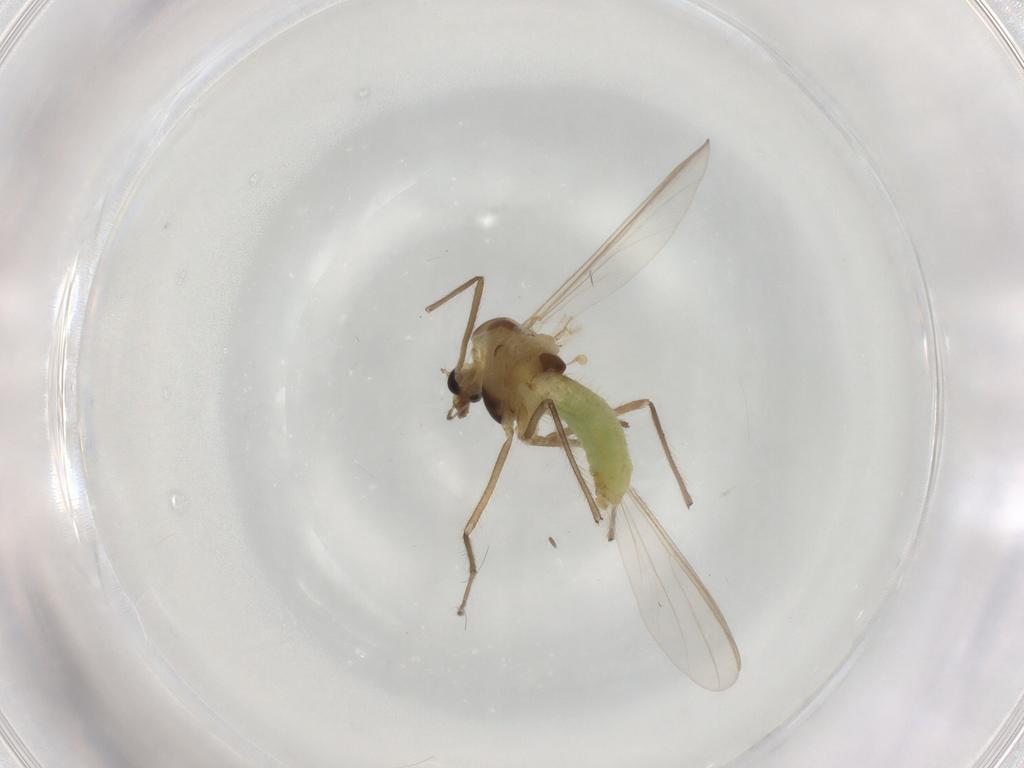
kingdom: Animalia
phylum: Arthropoda
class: Insecta
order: Diptera
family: Chironomidae
